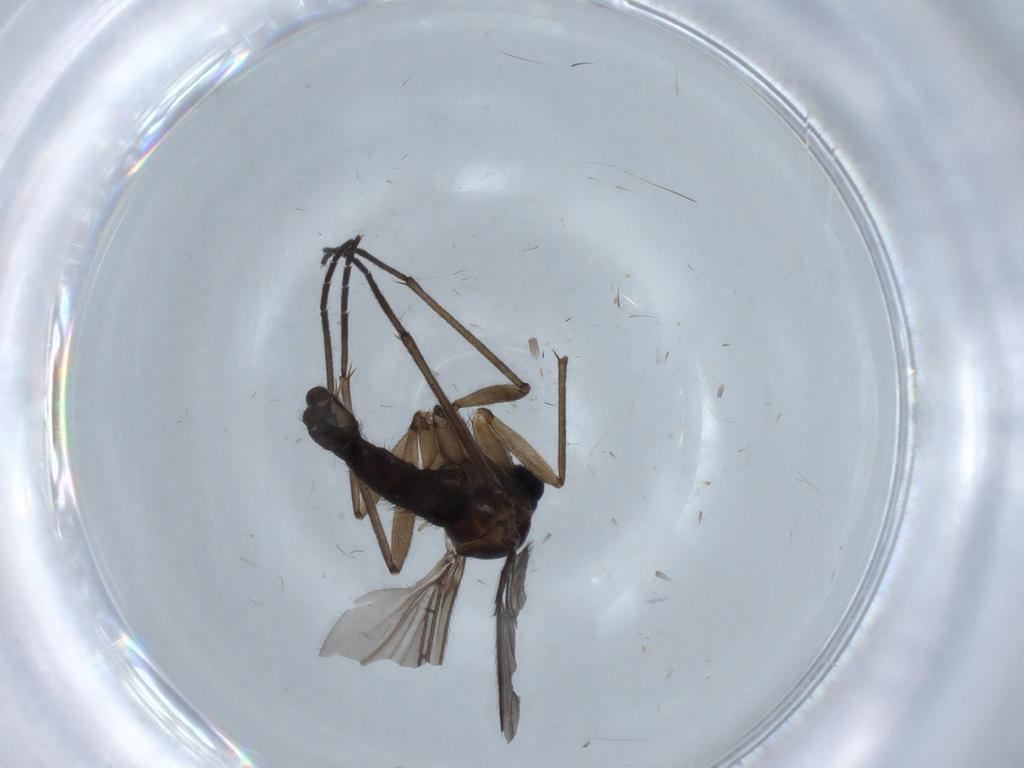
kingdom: Animalia
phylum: Arthropoda
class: Insecta
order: Diptera
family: Sciaridae
